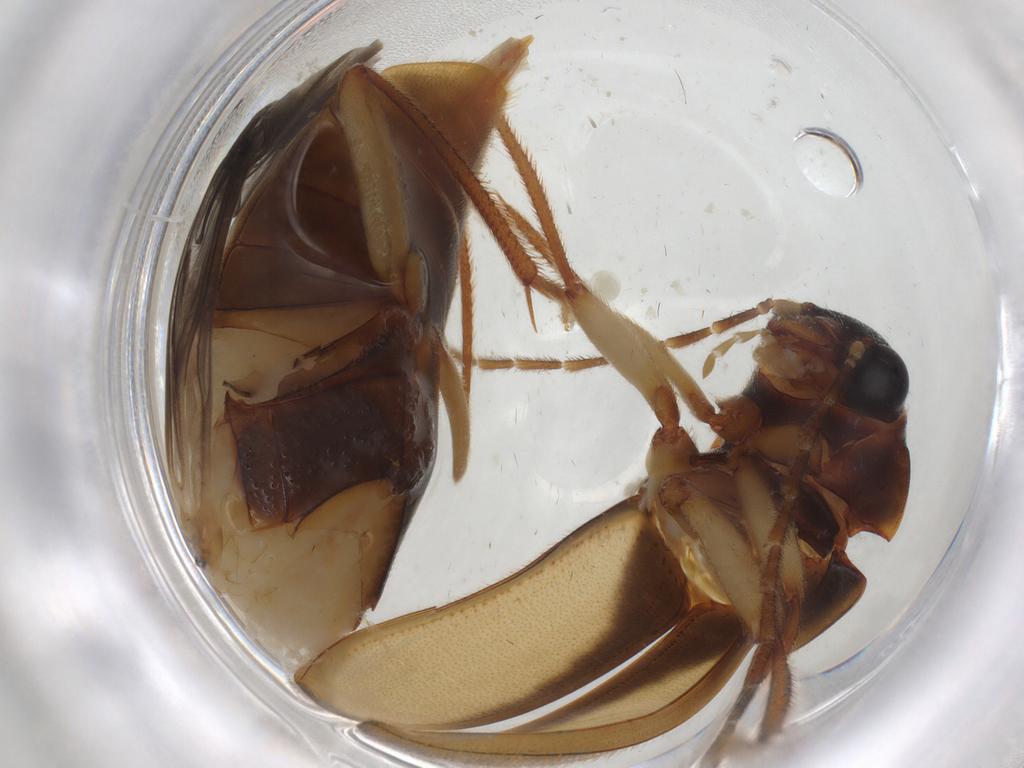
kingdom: Animalia
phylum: Arthropoda
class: Insecta
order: Coleoptera
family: Ptilodactylidae
